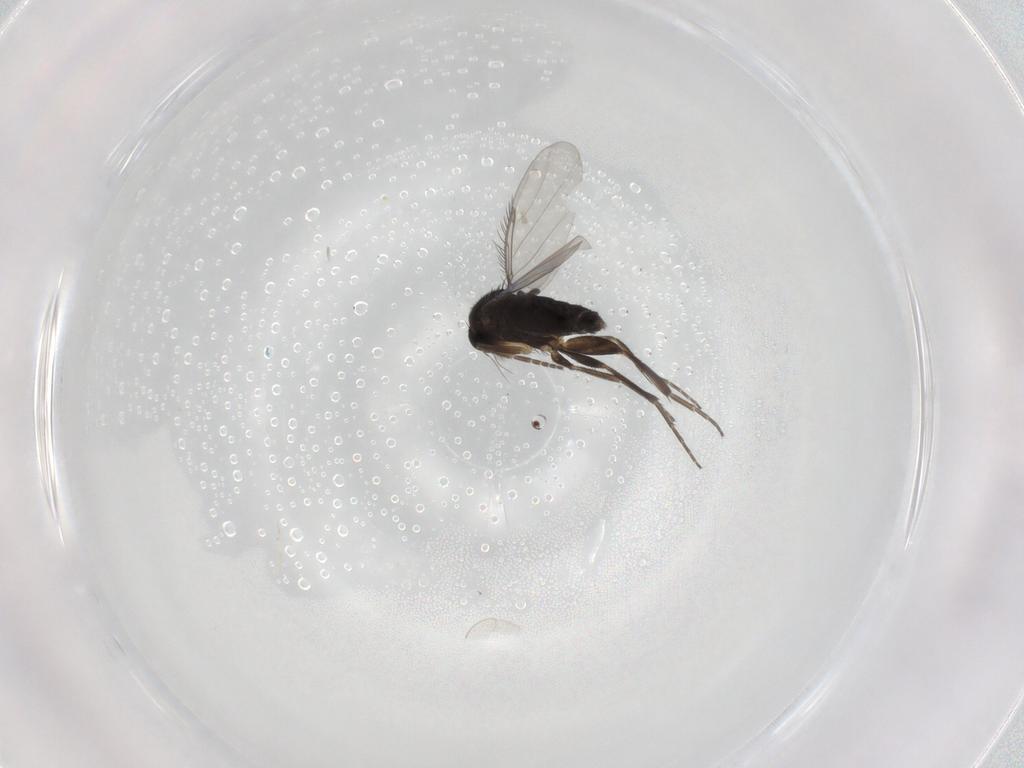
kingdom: Animalia
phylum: Arthropoda
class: Insecta
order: Diptera
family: Phoridae
